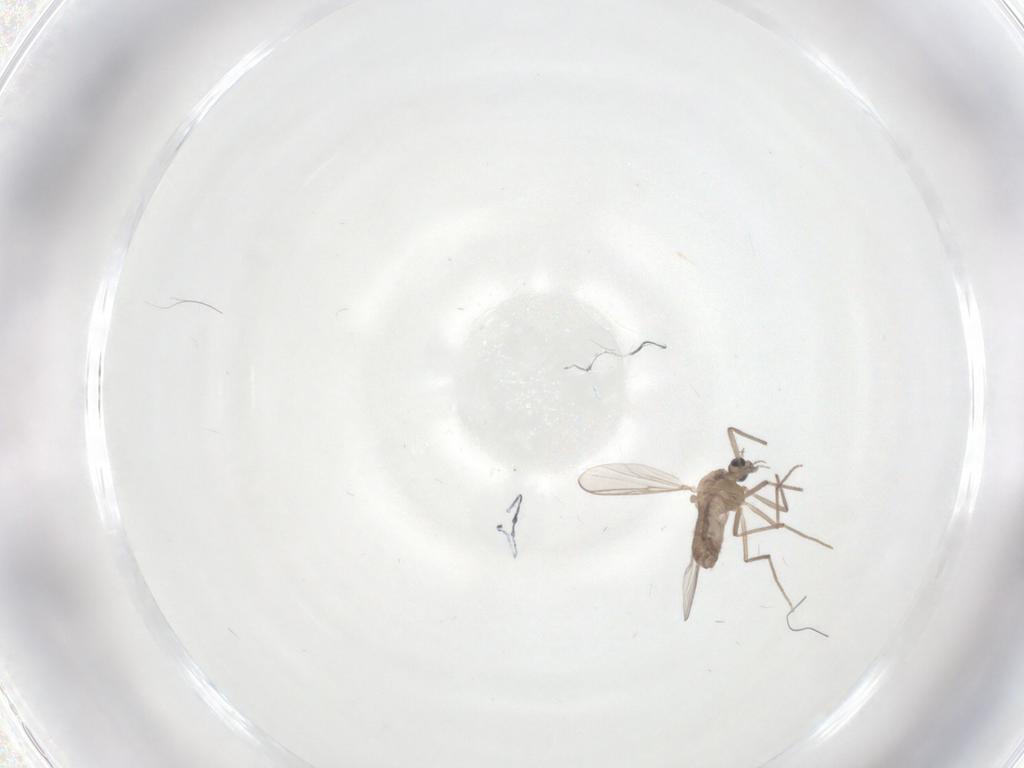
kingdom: Animalia
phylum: Arthropoda
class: Insecta
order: Diptera
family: Chironomidae
